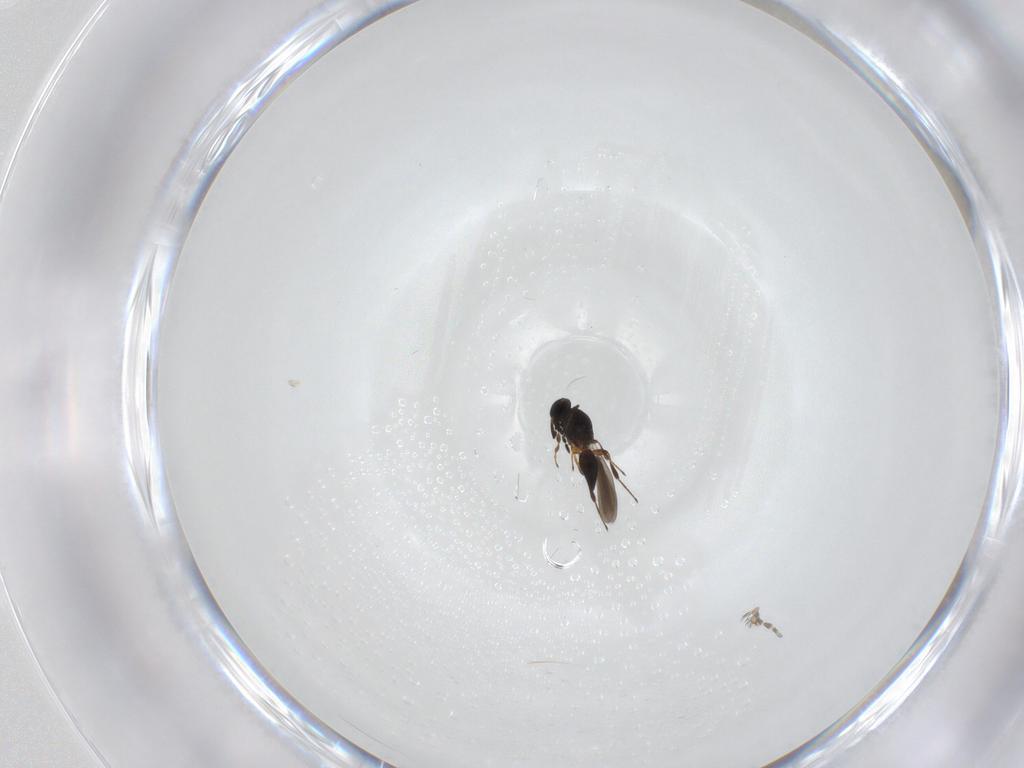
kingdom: Animalia
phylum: Arthropoda
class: Insecta
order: Hymenoptera
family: Platygastridae
